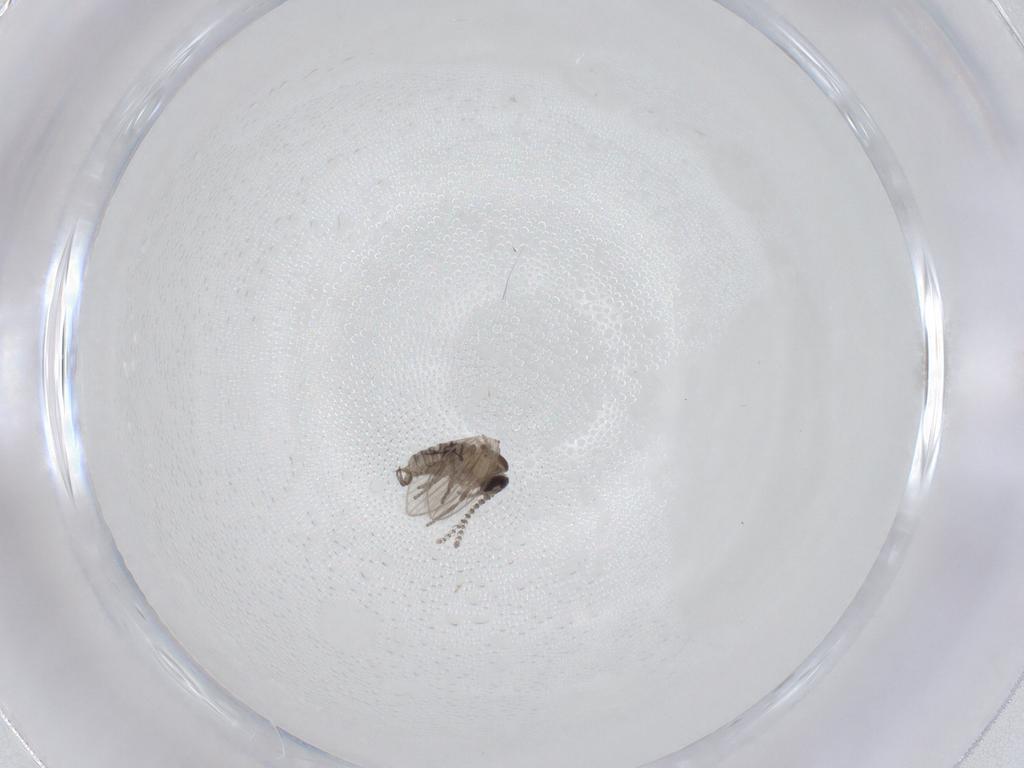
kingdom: Animalia
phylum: Arthropoda
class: Insecta
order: Diptera
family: Psychodidae
